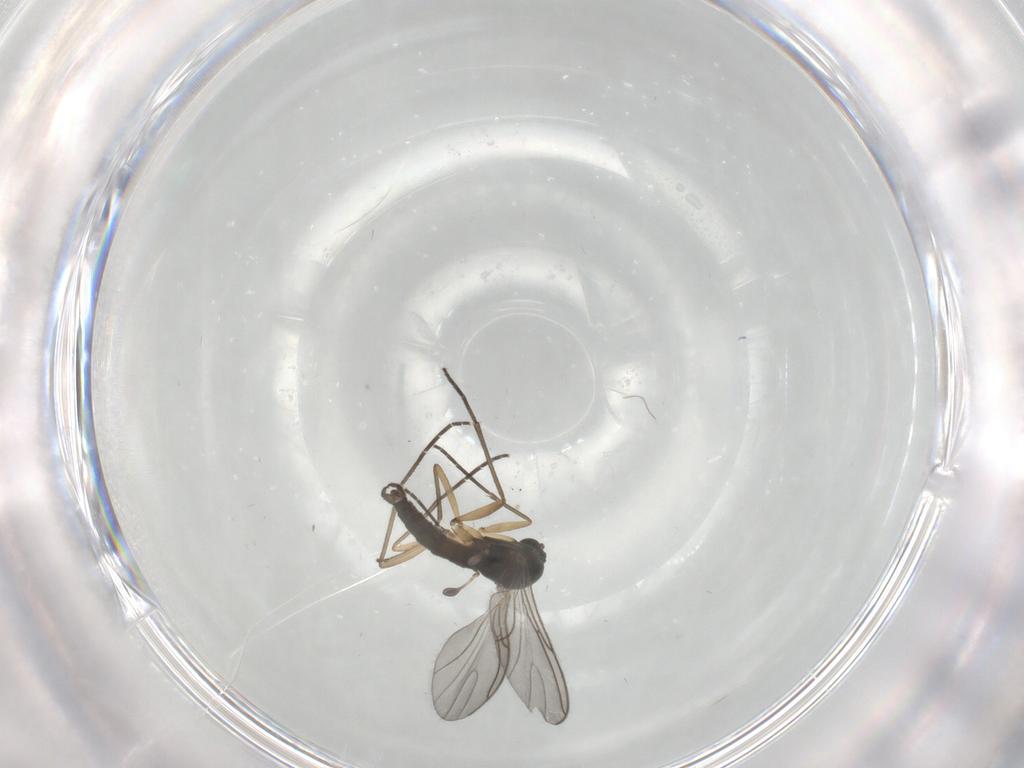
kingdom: Animalia
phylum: Arthropoda
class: Insecta
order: Diptera
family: Sciaridae
